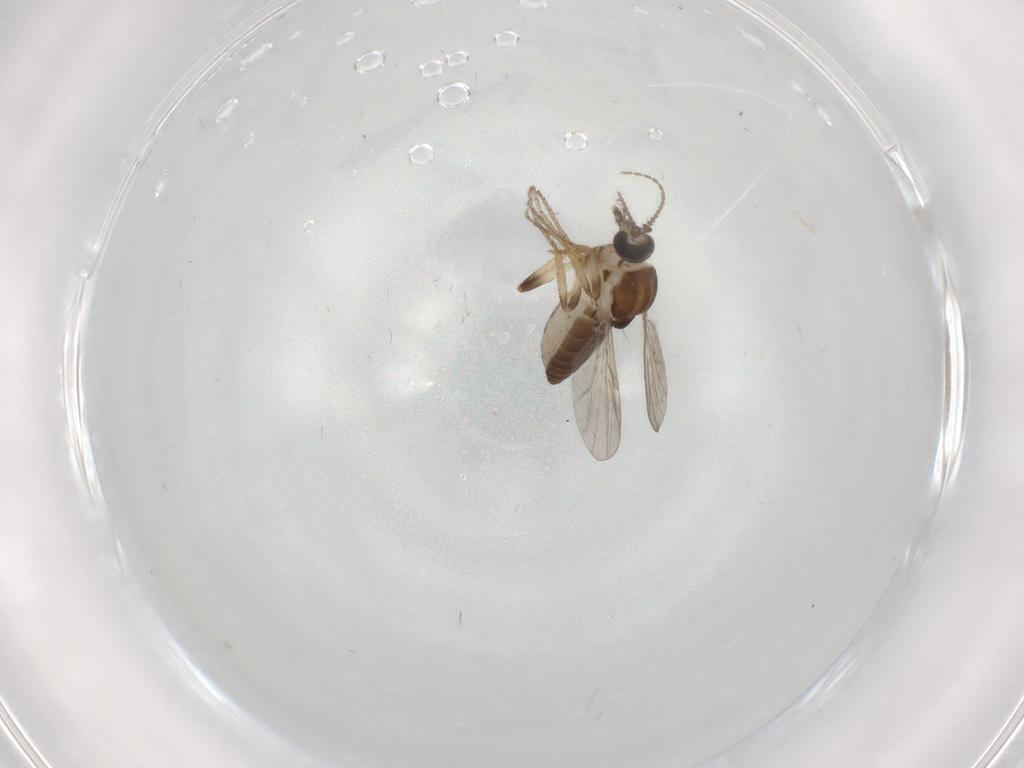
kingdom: Animalia
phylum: Arthropoda
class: Insecta
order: Diptera
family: Ceratopogonidae
